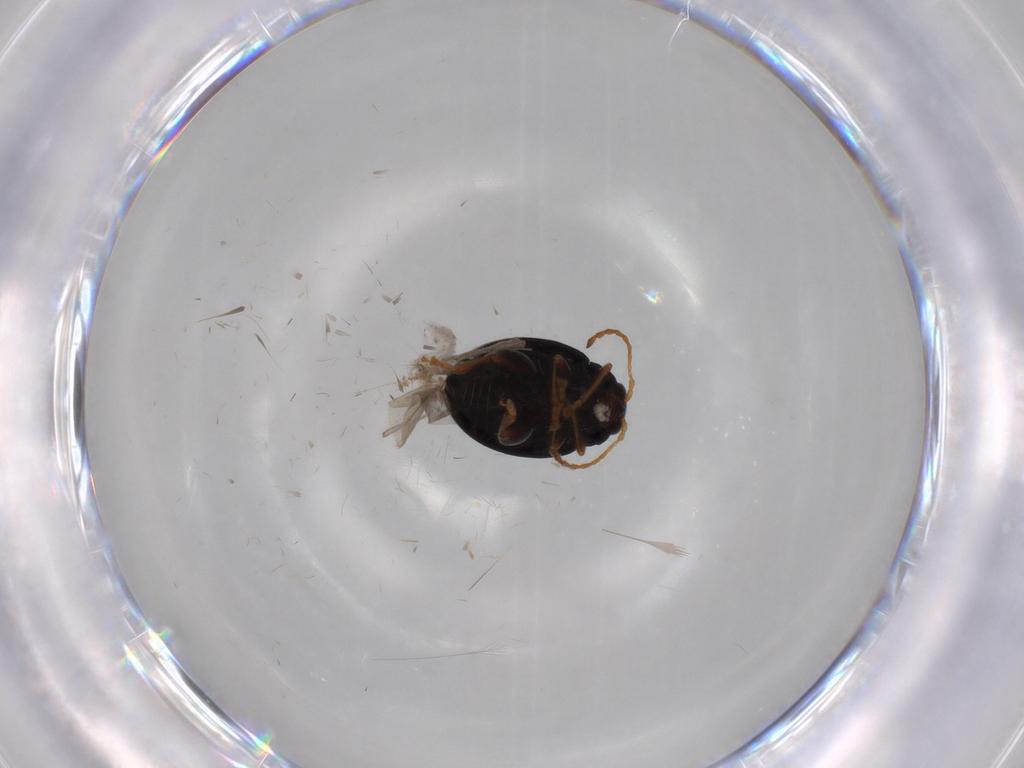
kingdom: Animalia
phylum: Arthropoda
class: Insecta
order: Coleoptera
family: Chrysomelidae
